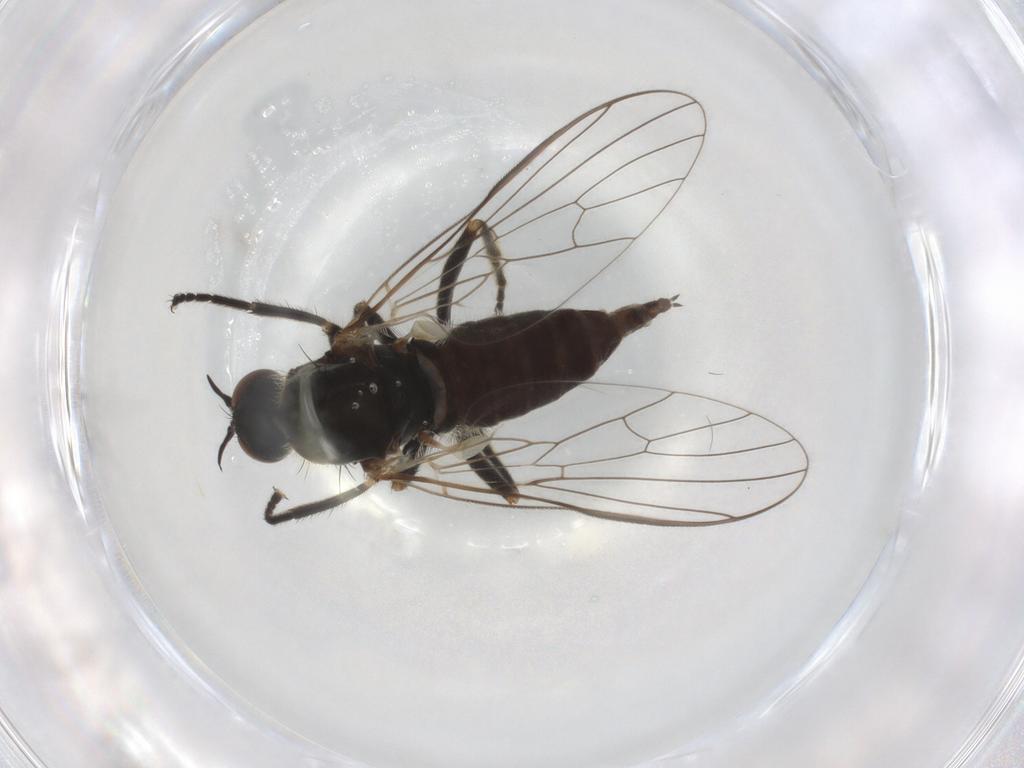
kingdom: Animalia
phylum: Arthropoda
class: Insecta
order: Diptera
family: Empididae
